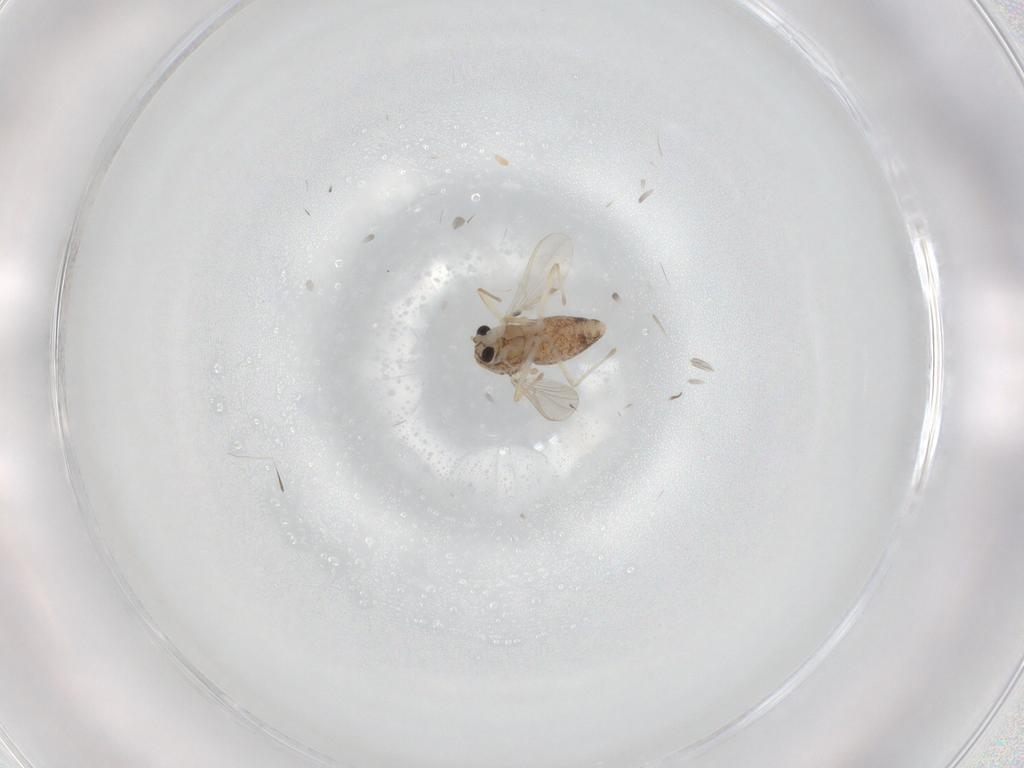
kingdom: Animalia
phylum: Arthropoda
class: Insecta
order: Diptera
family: Chironomidae
